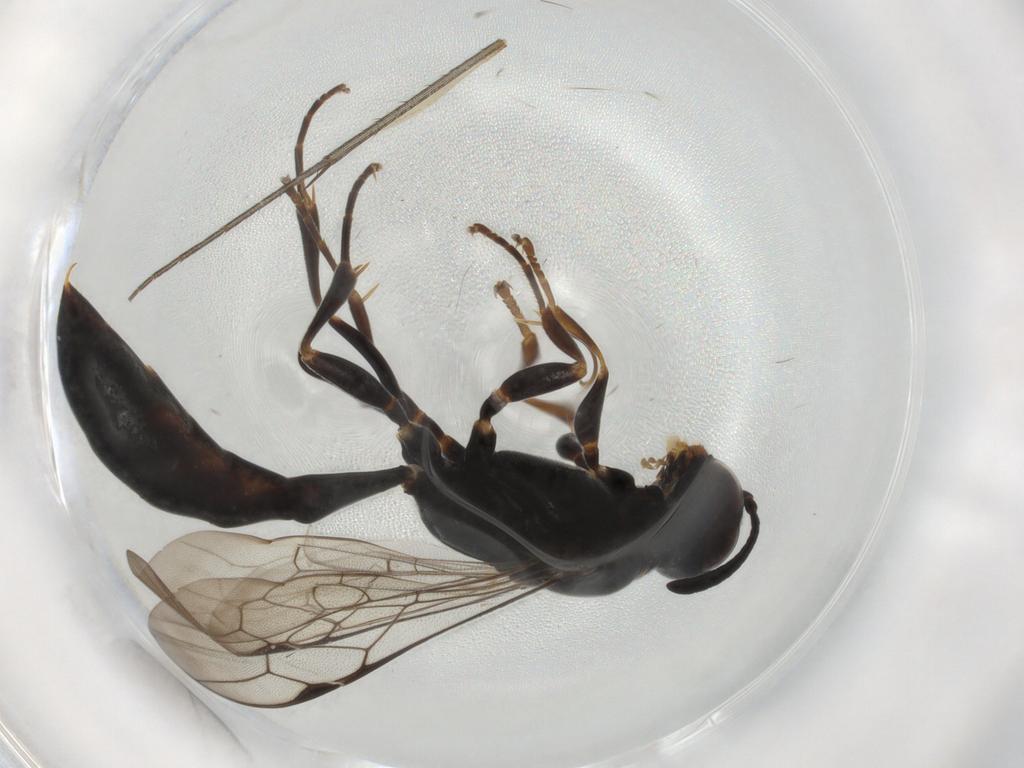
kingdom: Animalia
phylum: Arthropoda
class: Insecta
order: Hymenoptera
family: Crabronidae
